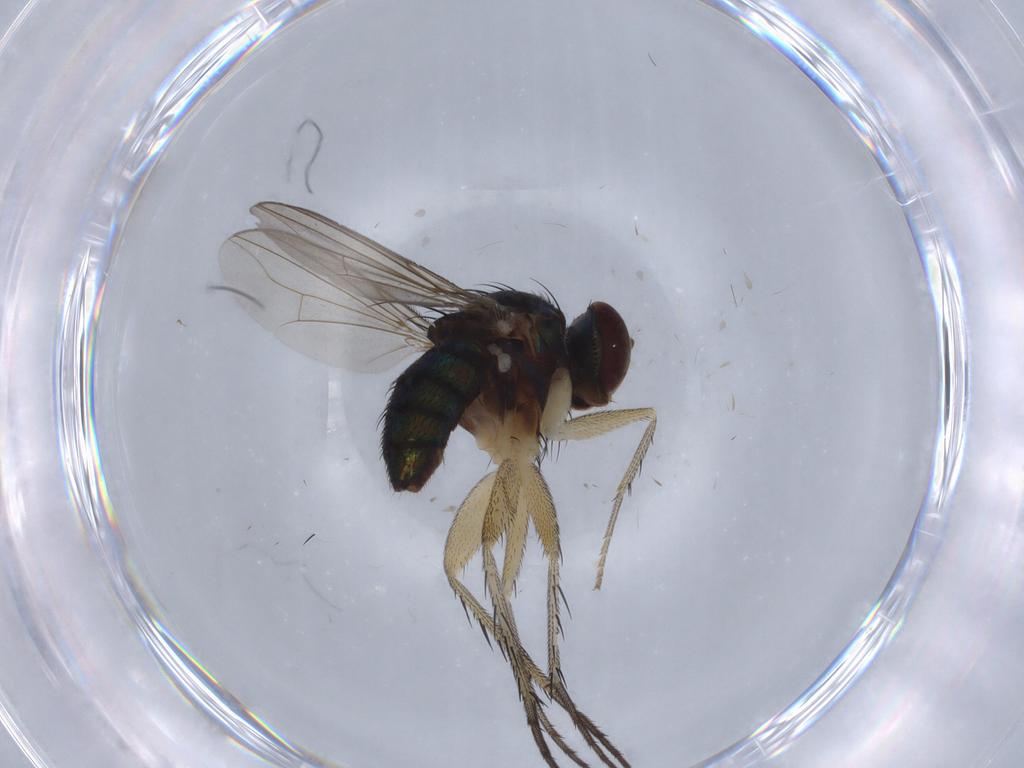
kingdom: Animalia
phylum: Arthropoda
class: Insecta
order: Diptera
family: Dolichopodidae
